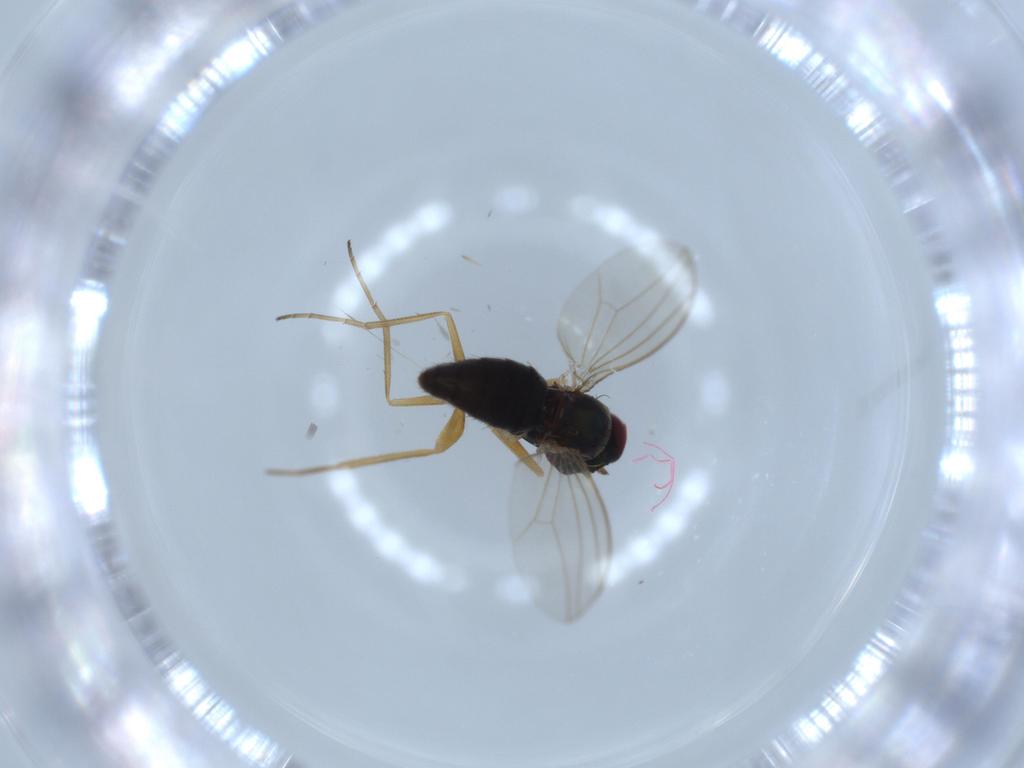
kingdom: Animalia
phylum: Arthropoda
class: Insecta
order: Diptera
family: Dolichopodidae
